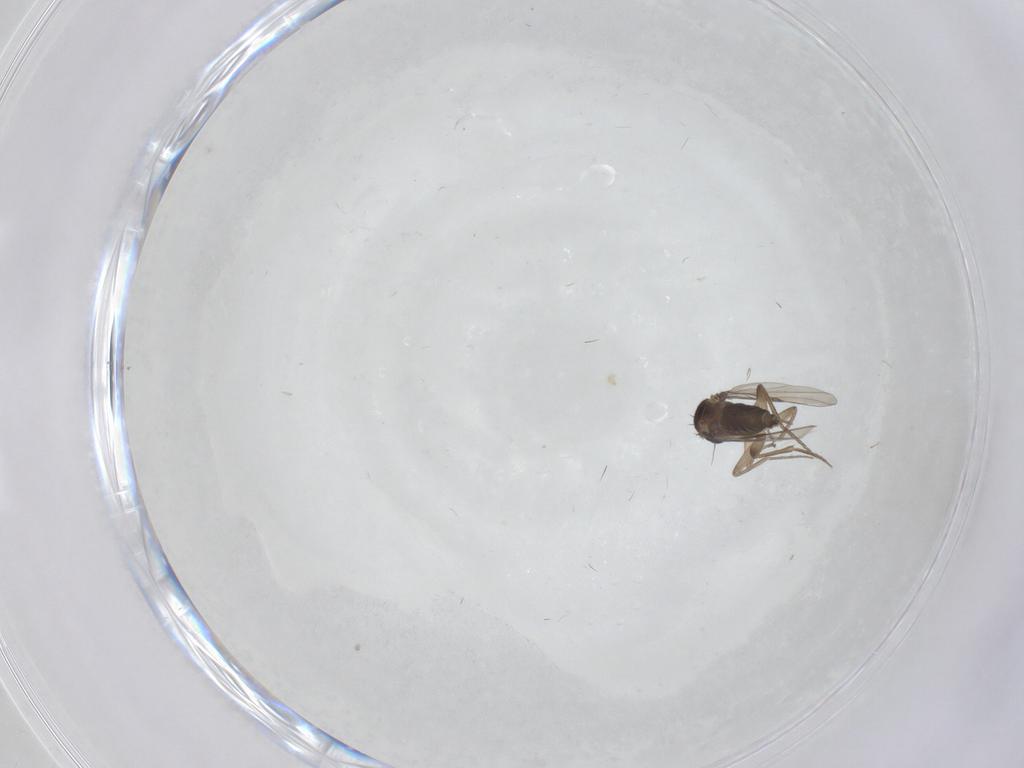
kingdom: Animalia
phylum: Arthropoda
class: Insecta
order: Diptera
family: Phoridae
